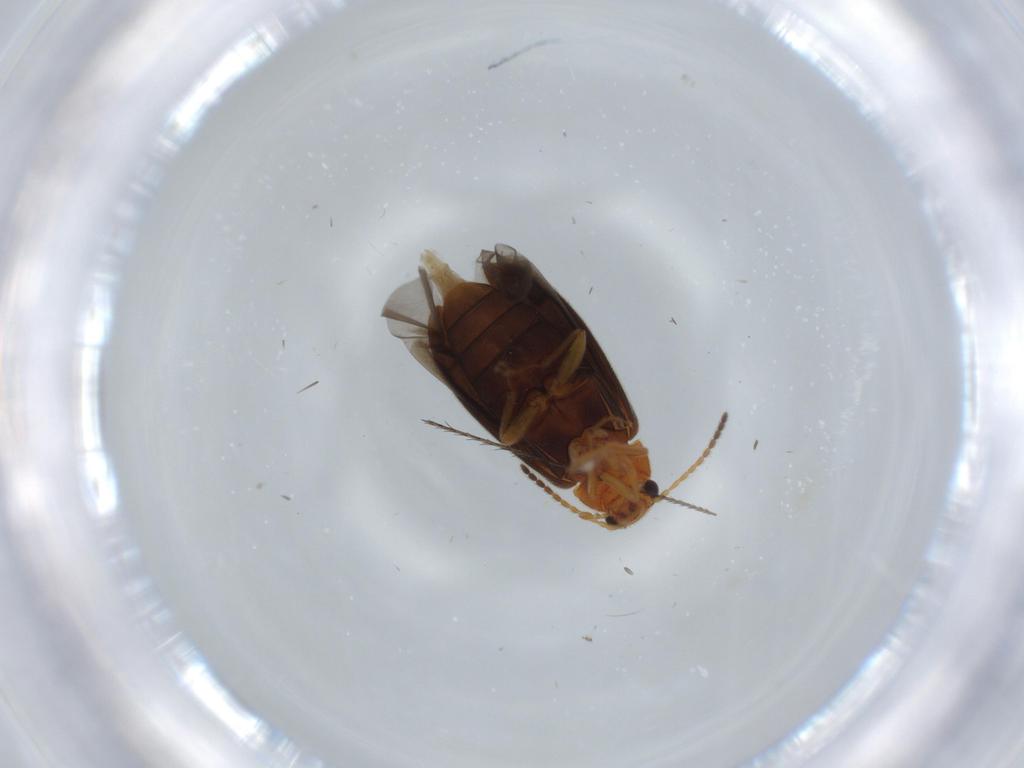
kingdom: Animalia
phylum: Arthropoda
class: Insecta
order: Coleoptera
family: Melandryidae
